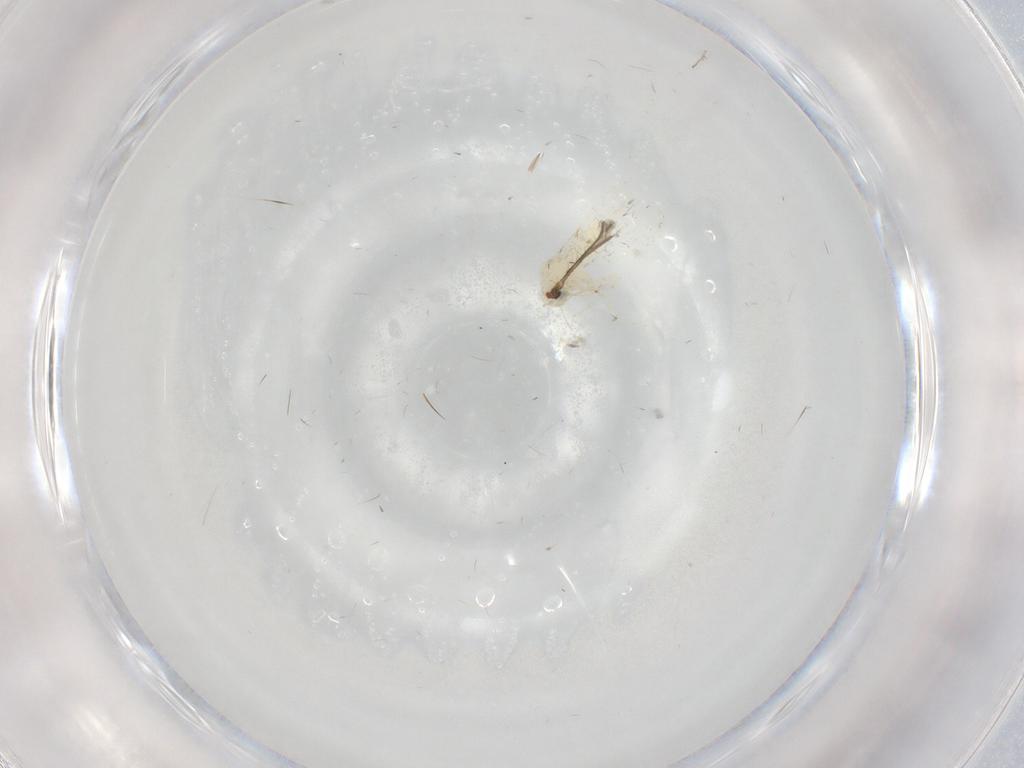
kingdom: Animalia
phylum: Arthropoda
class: Insecta
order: Hemiptera
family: Aleyrodidae
